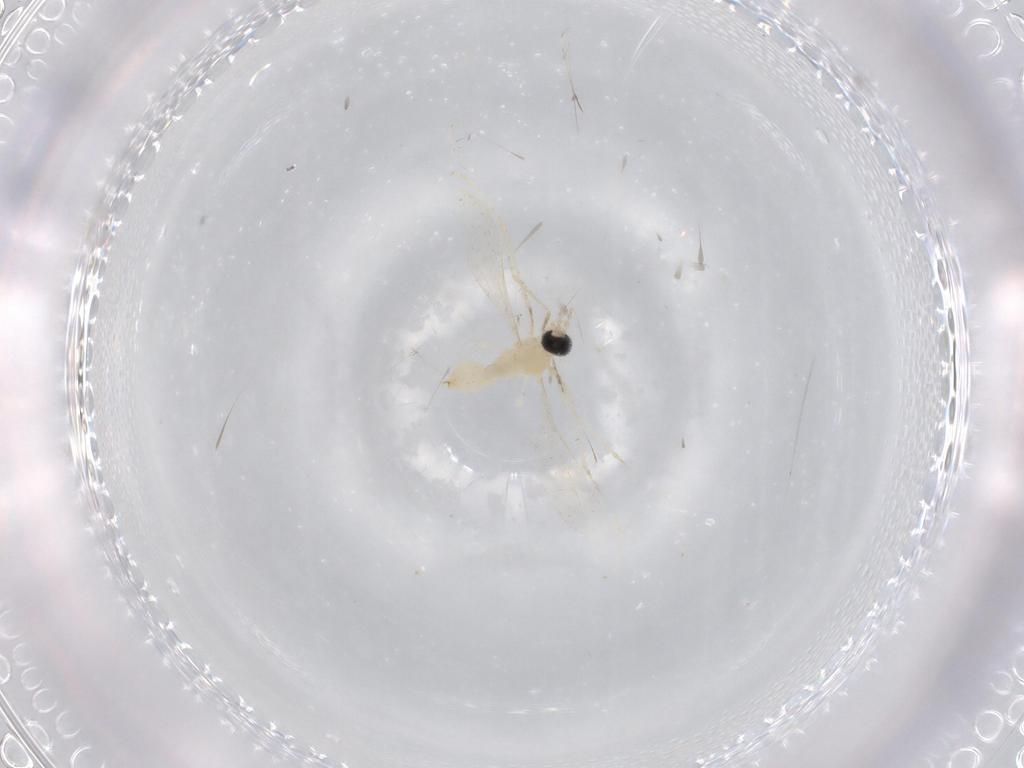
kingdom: Animalia
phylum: Arthropoda
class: Insecta
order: Diptera
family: Cecidomyiidae
